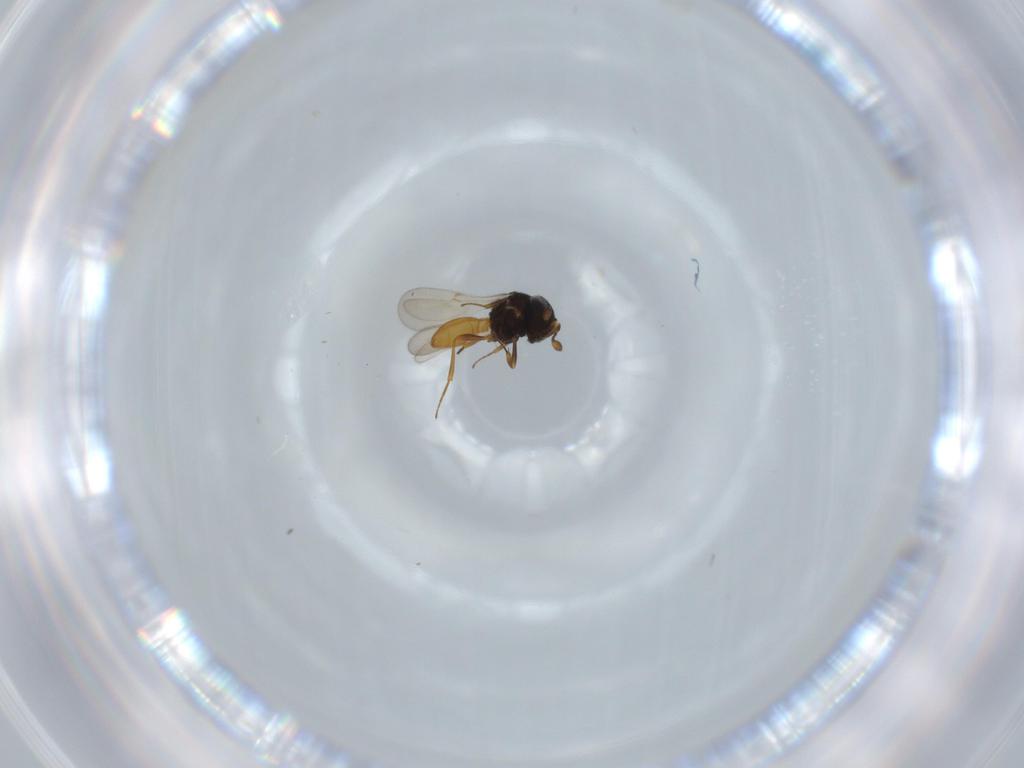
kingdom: Animalia
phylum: Arthropoda
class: Insecta
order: Hymenoptera
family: Scelionidae
